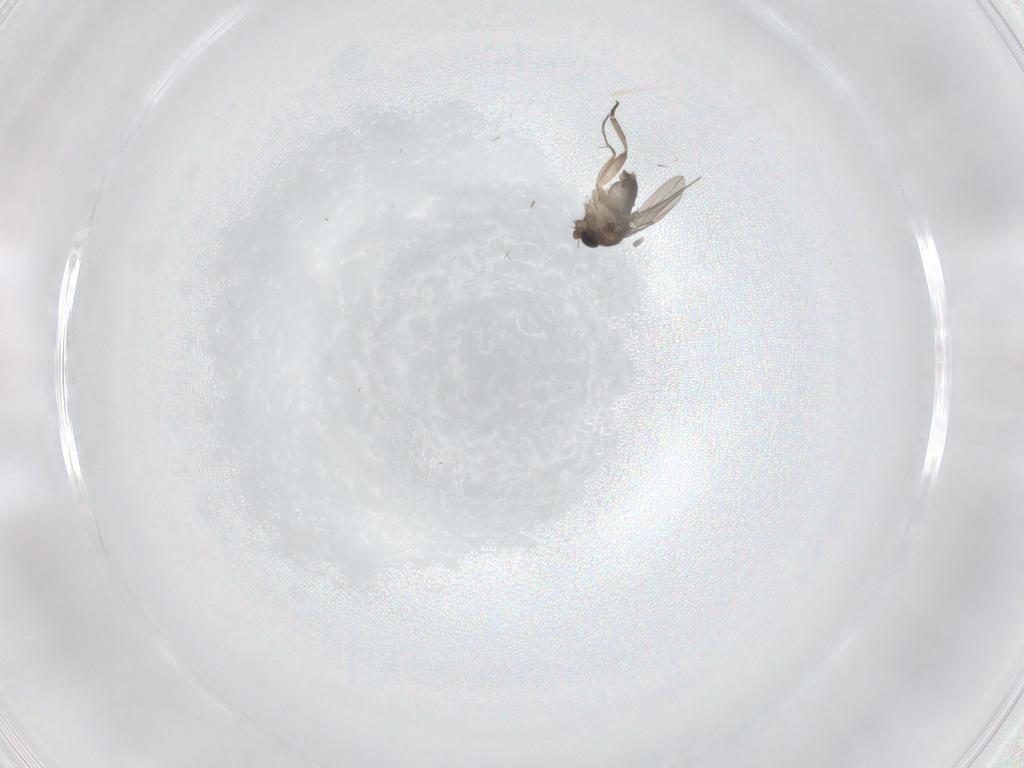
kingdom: Animalia
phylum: Arthropoda
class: Insecta
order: Diptera
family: Phoridae
